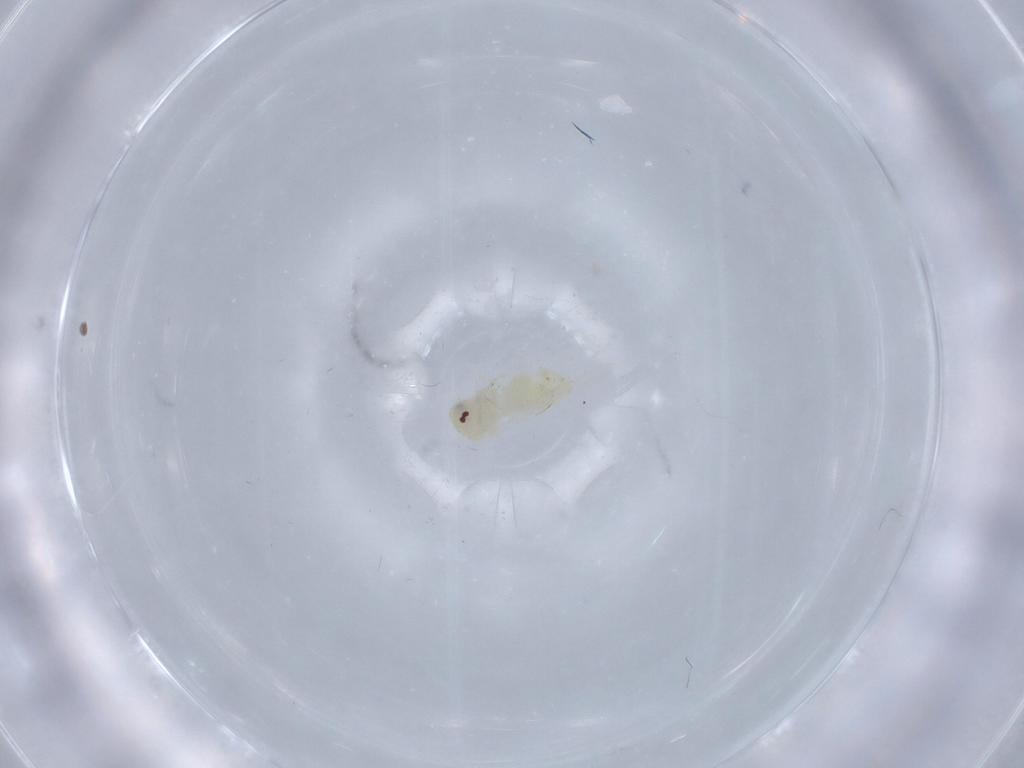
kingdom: Animalia
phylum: Arthropoda
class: Insecta
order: Hemiptera
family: Aleyrodidae
